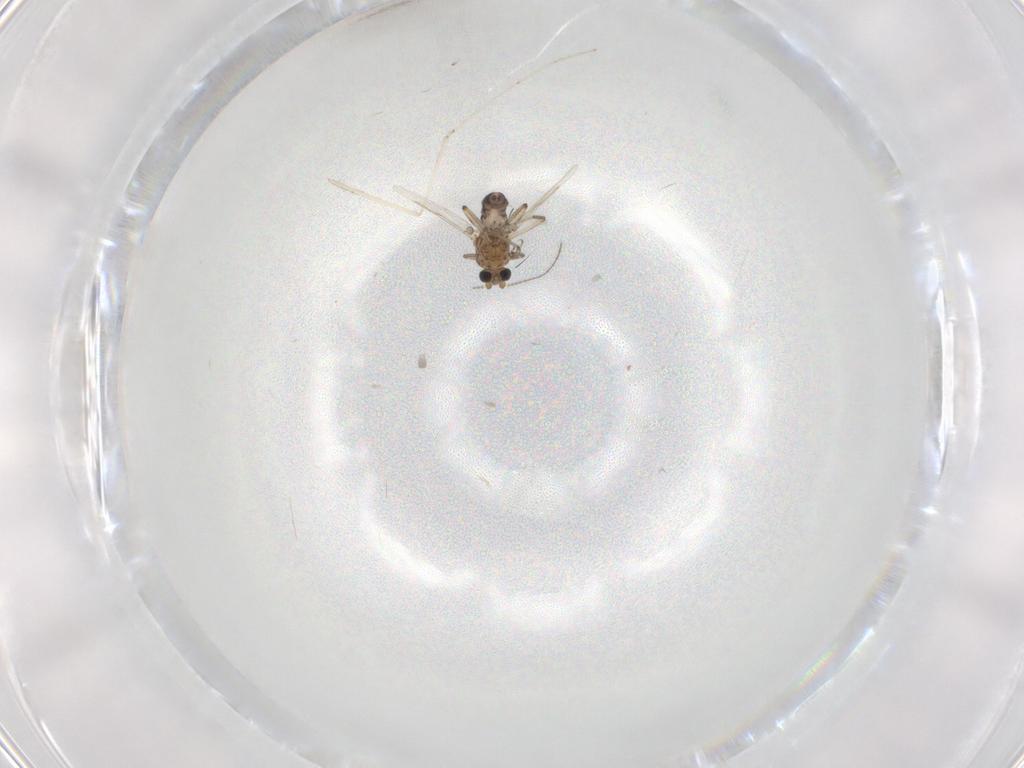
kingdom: Animalia
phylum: Arthropoda
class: Insecta
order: Diptera
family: Ceratopogonidae
